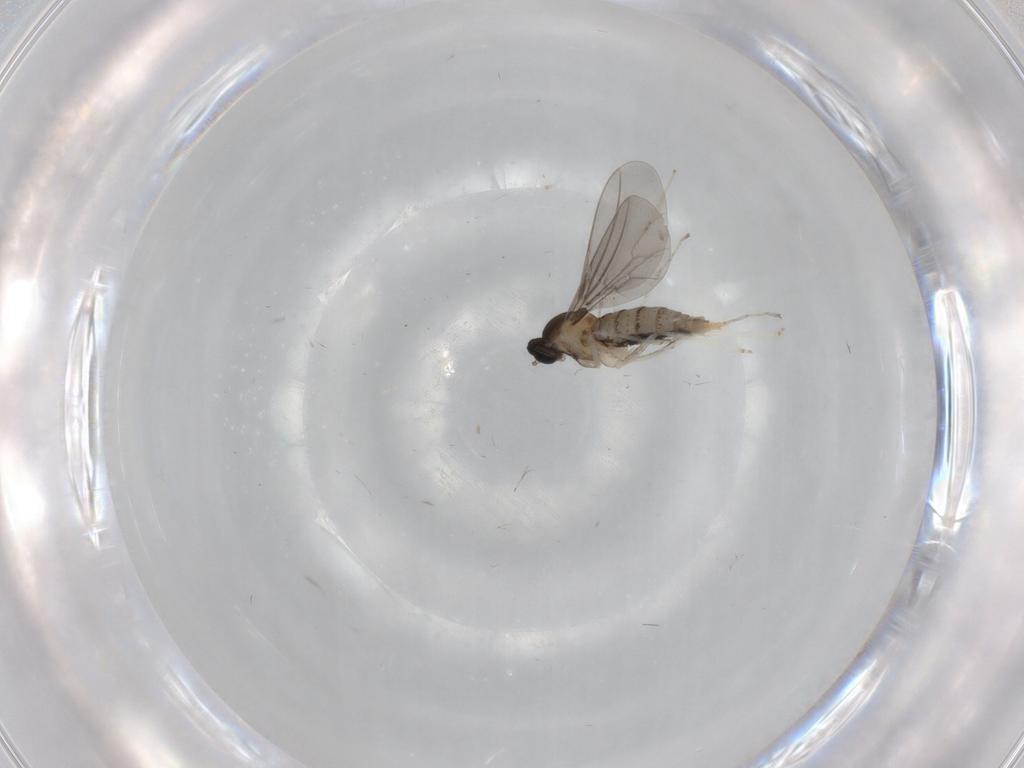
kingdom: Animalia
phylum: Arthropoda
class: Insecta
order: Diptera
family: Cecidomyiidae
